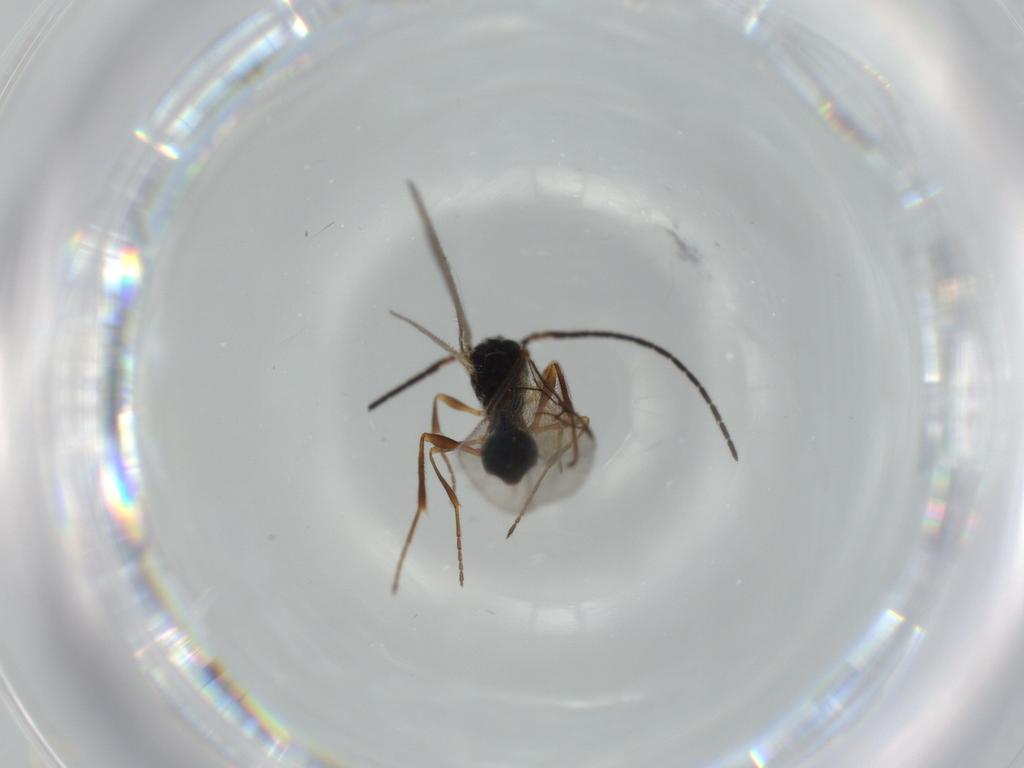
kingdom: Animalia
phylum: Arthropoda
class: Insecta
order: Hymenoptera
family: Diapriidae
